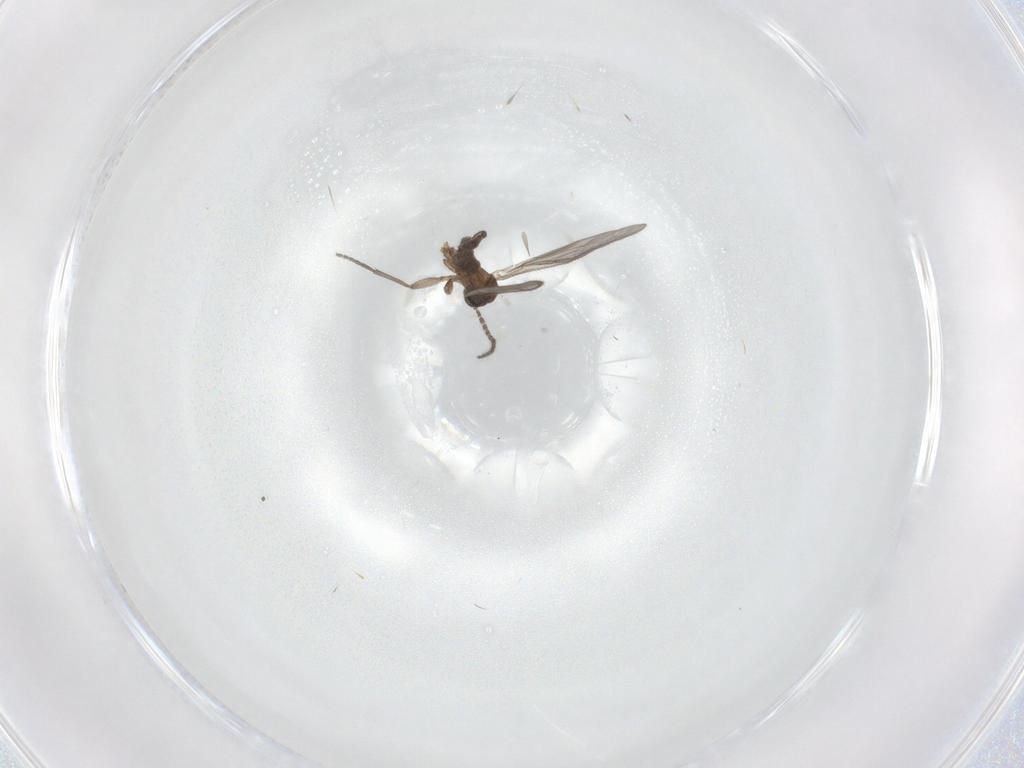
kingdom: Animalia
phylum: Arthropoda
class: Insecta
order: Diptera
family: Sciaridae
